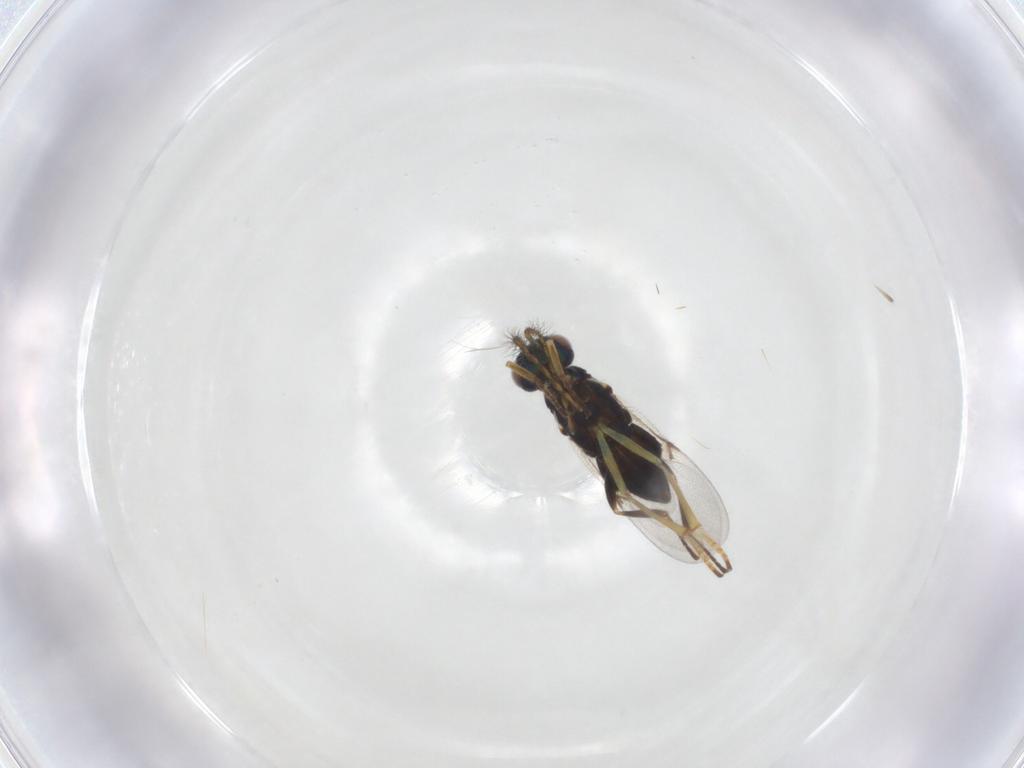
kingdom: Animalia
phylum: Arthropoda
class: Insecta
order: Hymenoptera
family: Encyrtidae
